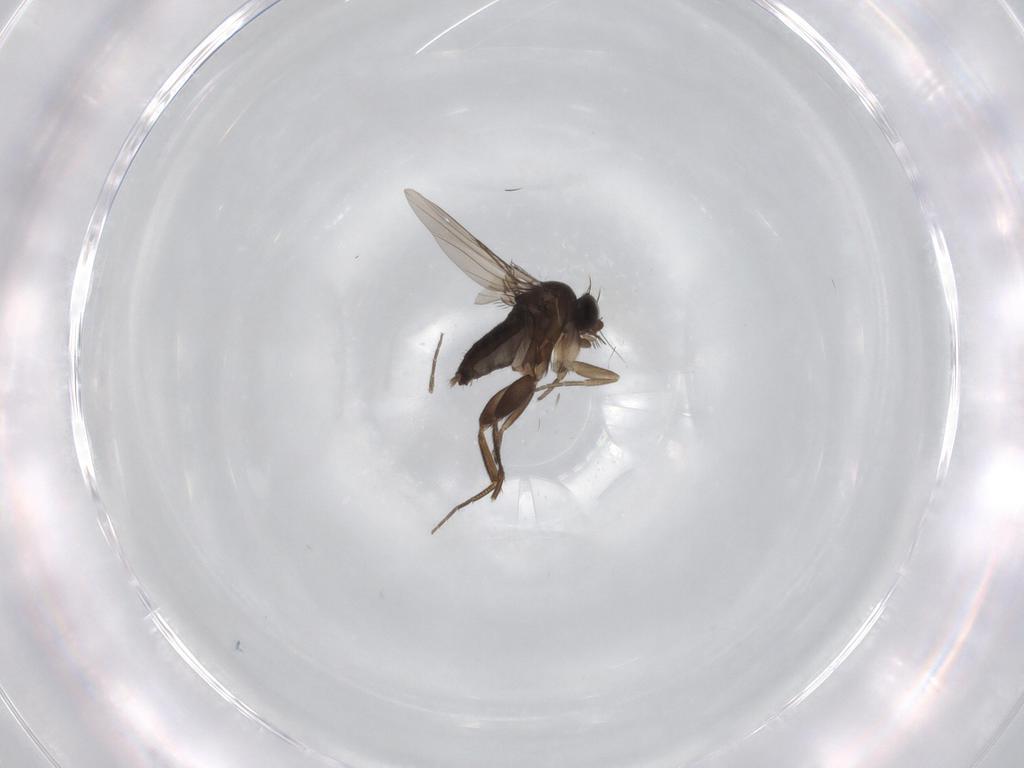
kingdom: Animalia
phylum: Arthropoda
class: Insecta
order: Diptera
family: Phoridae
